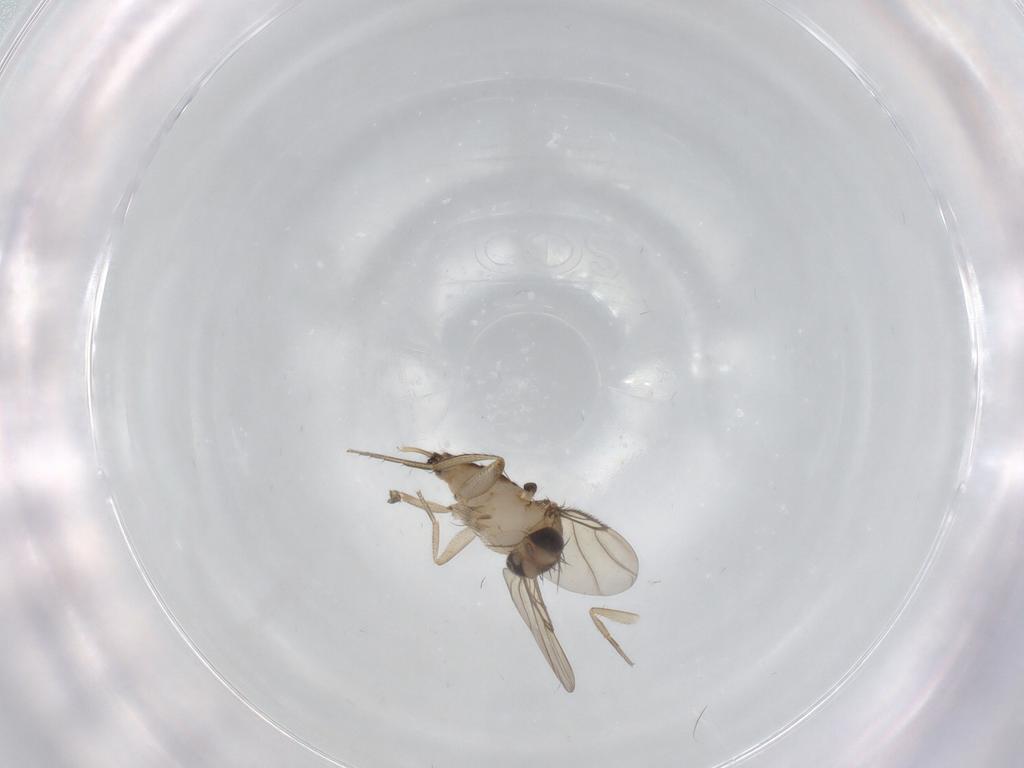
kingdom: Animalia
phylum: Arthropoda
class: Insecta
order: Diptera
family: Phoridae
